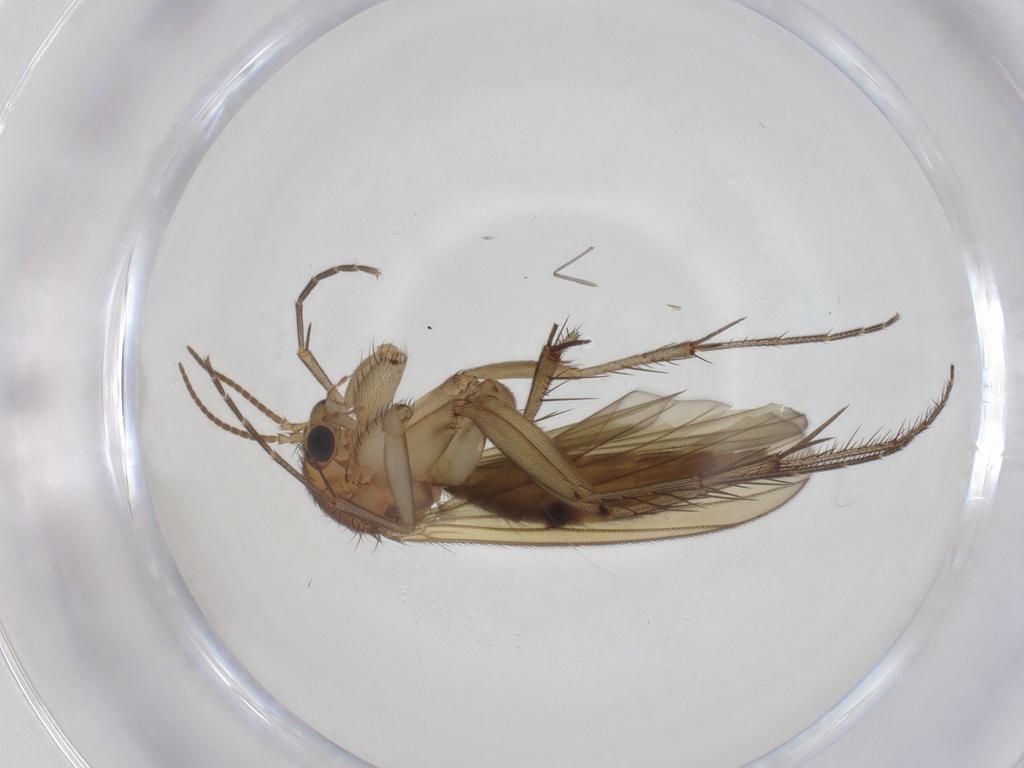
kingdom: Animalia
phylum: Arthropoda
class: Insecta
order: Diptera
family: Mycetophilidae
